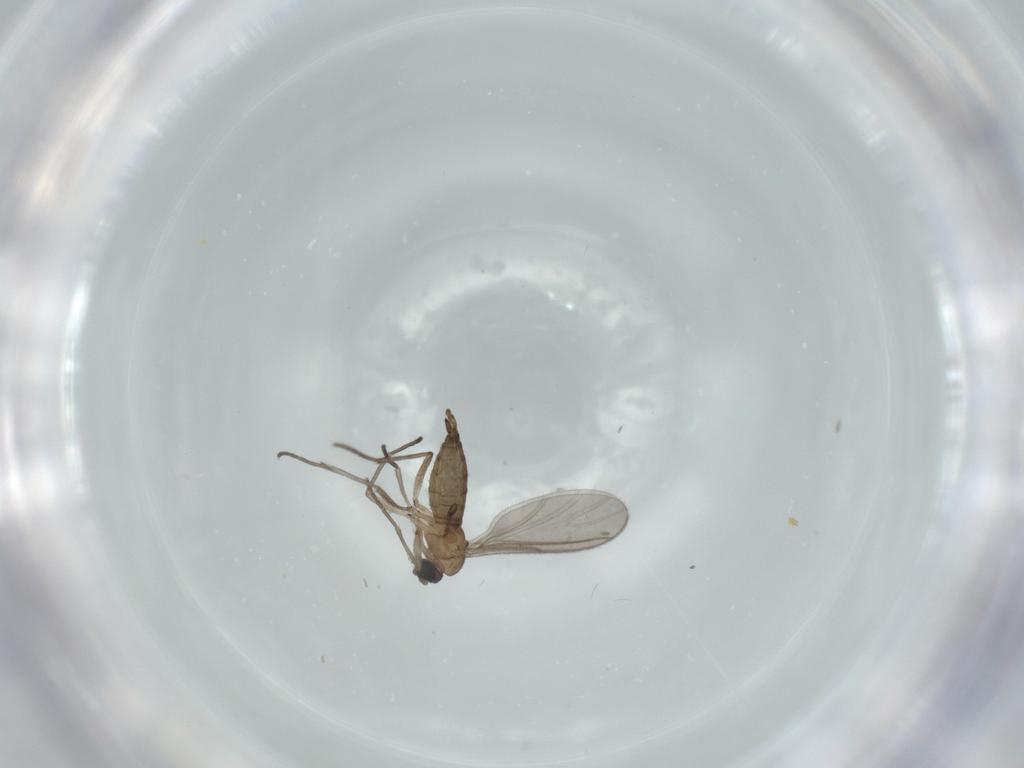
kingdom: Animalia
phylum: Arthropoda
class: Insecta
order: Diptera
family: Sciaridae
